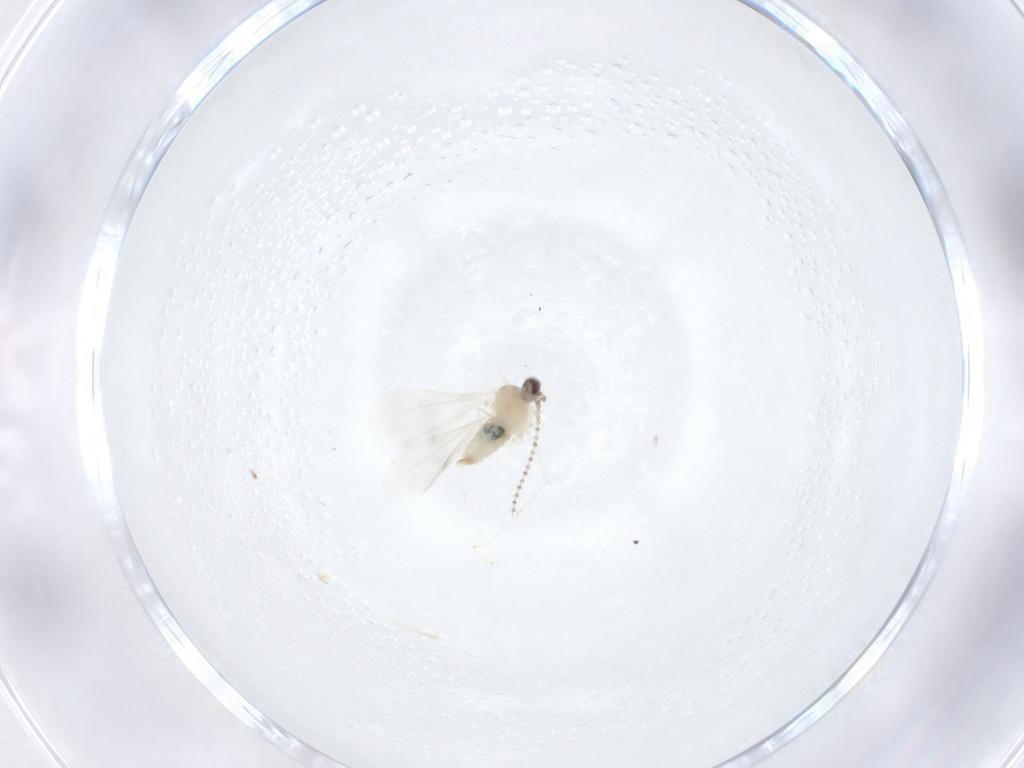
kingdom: Animalia
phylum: Arthropoda
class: Insecta
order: Diptera
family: Cecidomyiidae
